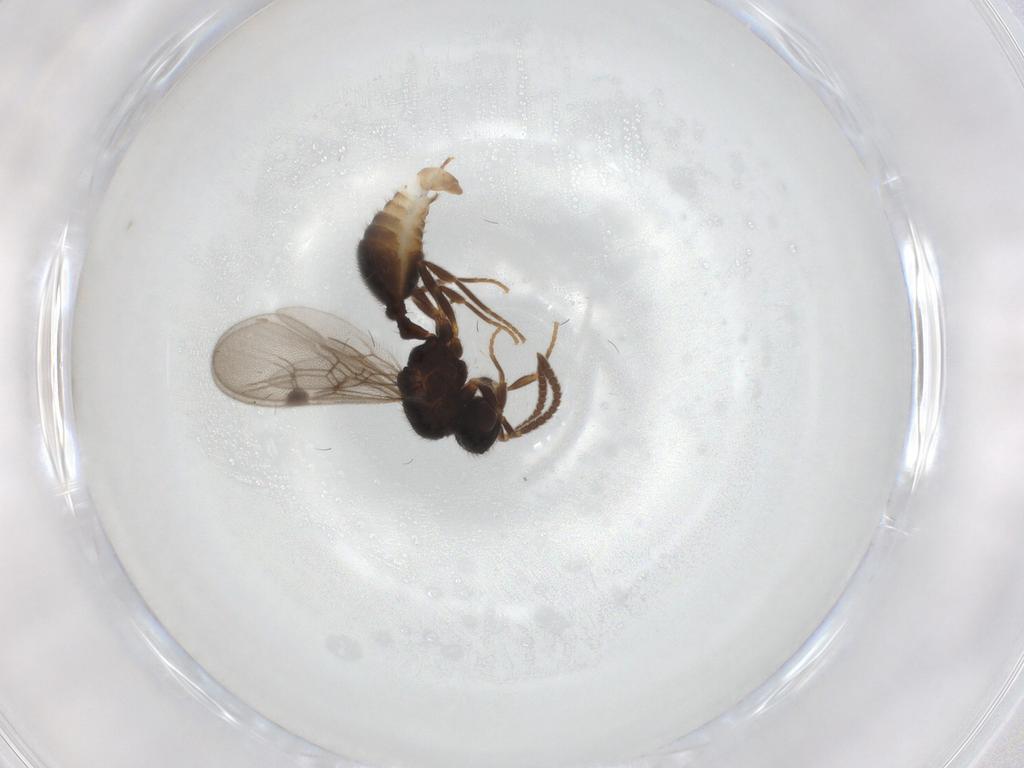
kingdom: Animalia
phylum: Arthropoda
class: Insecta
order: Hymenoptera
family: Formicidae
